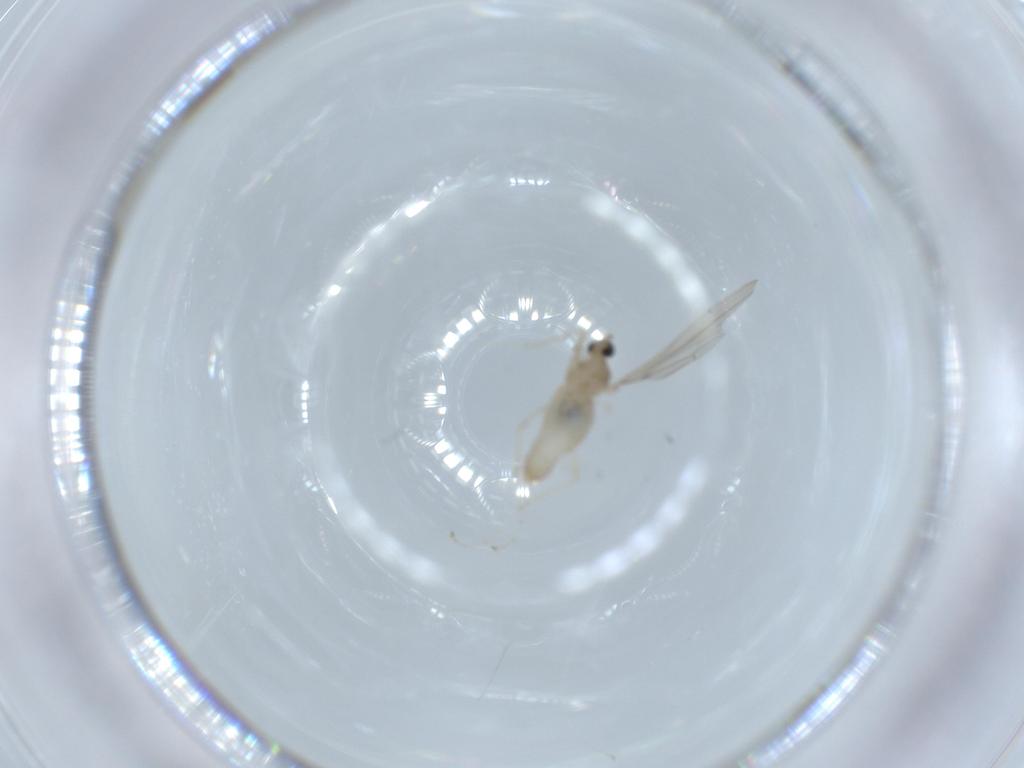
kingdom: Animalia
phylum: Arthropoda
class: Insecta
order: Diptera
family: Cecidomyiidae
